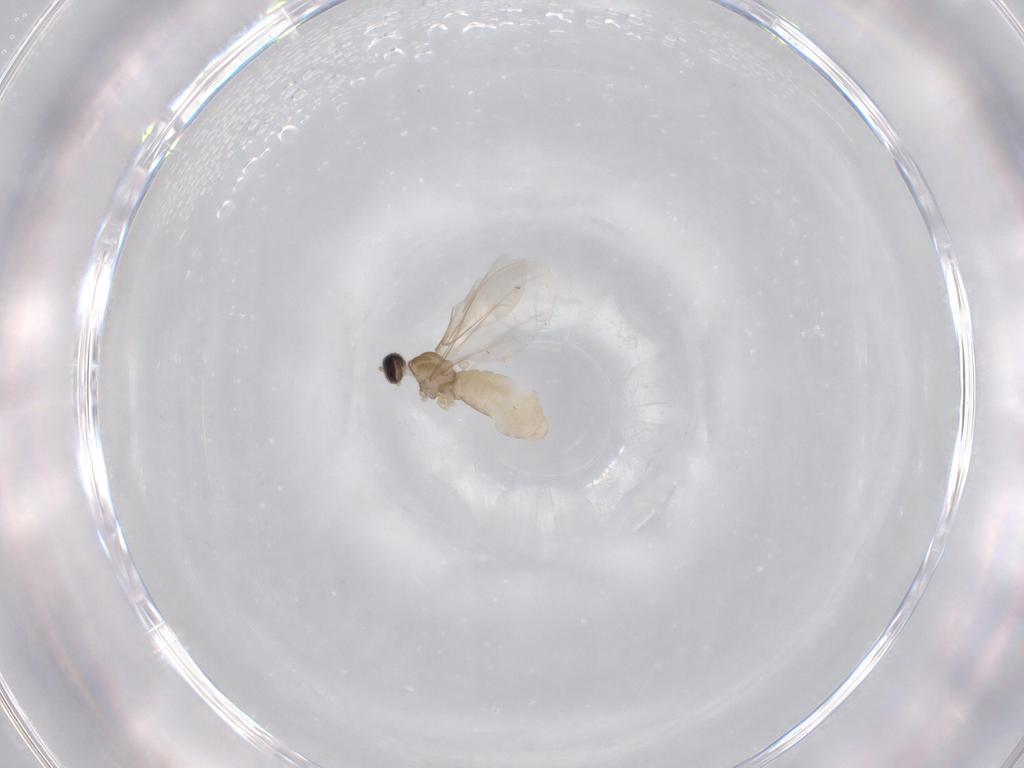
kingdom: Animalia
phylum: Arthropoda
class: Insecta
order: Diptera
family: Cecidomyiidae
